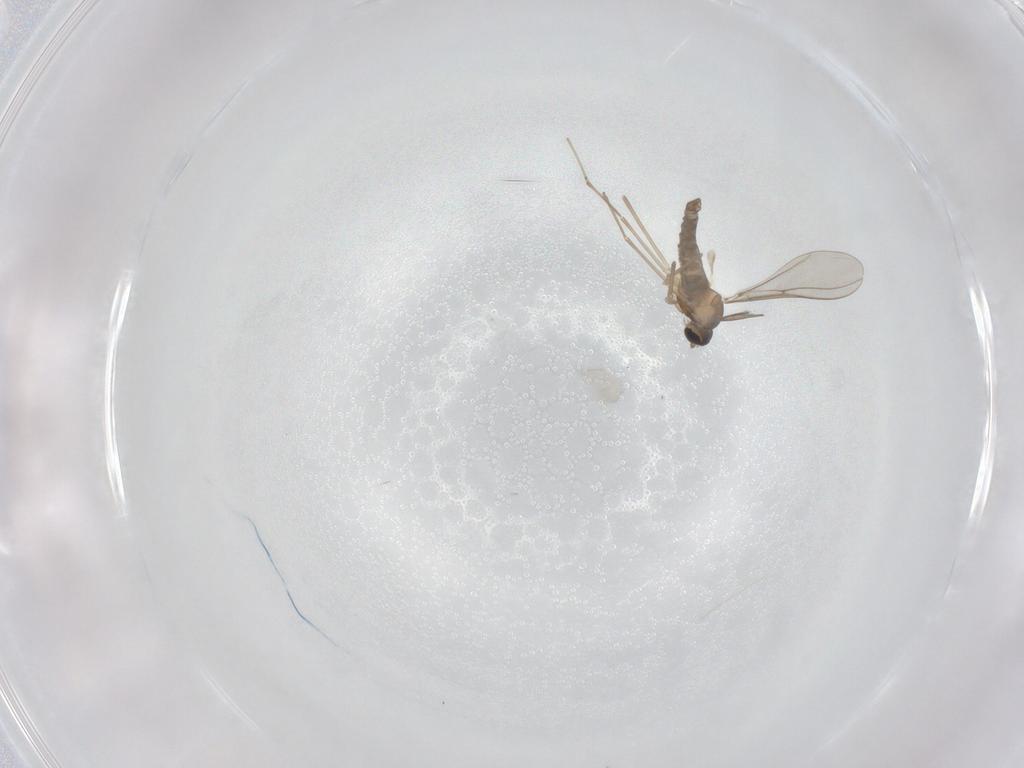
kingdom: Animalia
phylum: Arthropoda
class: Insecta
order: Diptera
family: Cecidomyiidae
